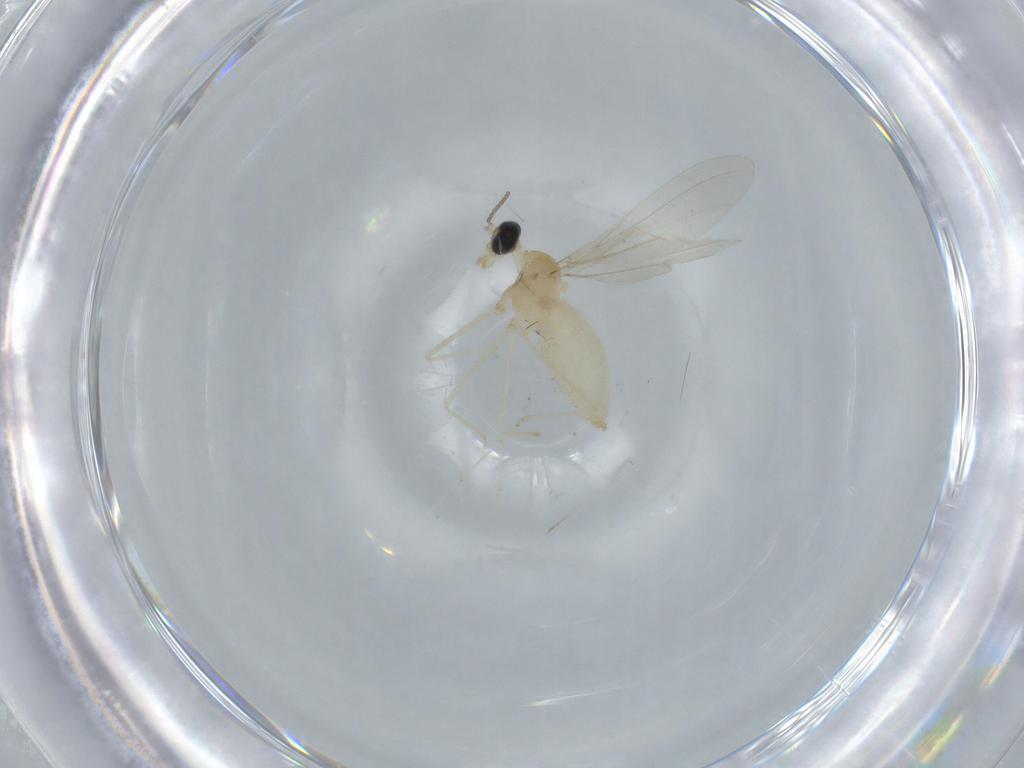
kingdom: Animalia
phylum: Arthropoda
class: Insecta
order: Diptera
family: Cecidomyiidae
